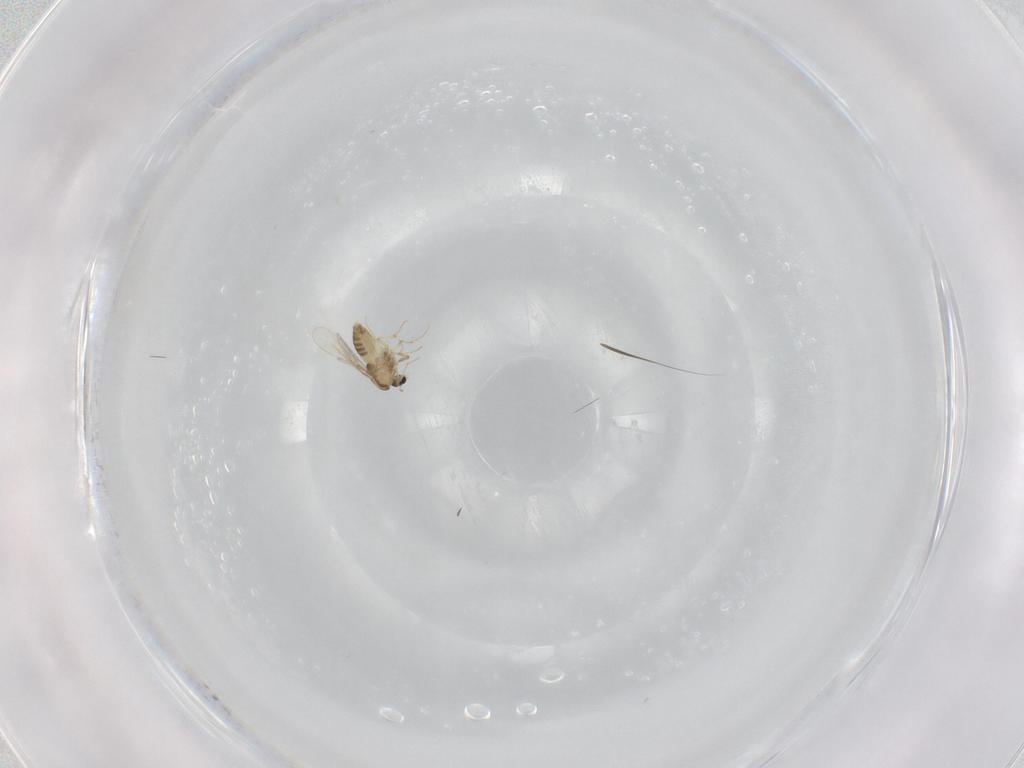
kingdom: Animalia
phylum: Arthropoda
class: Insecta
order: Diptera
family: Chironomidae
